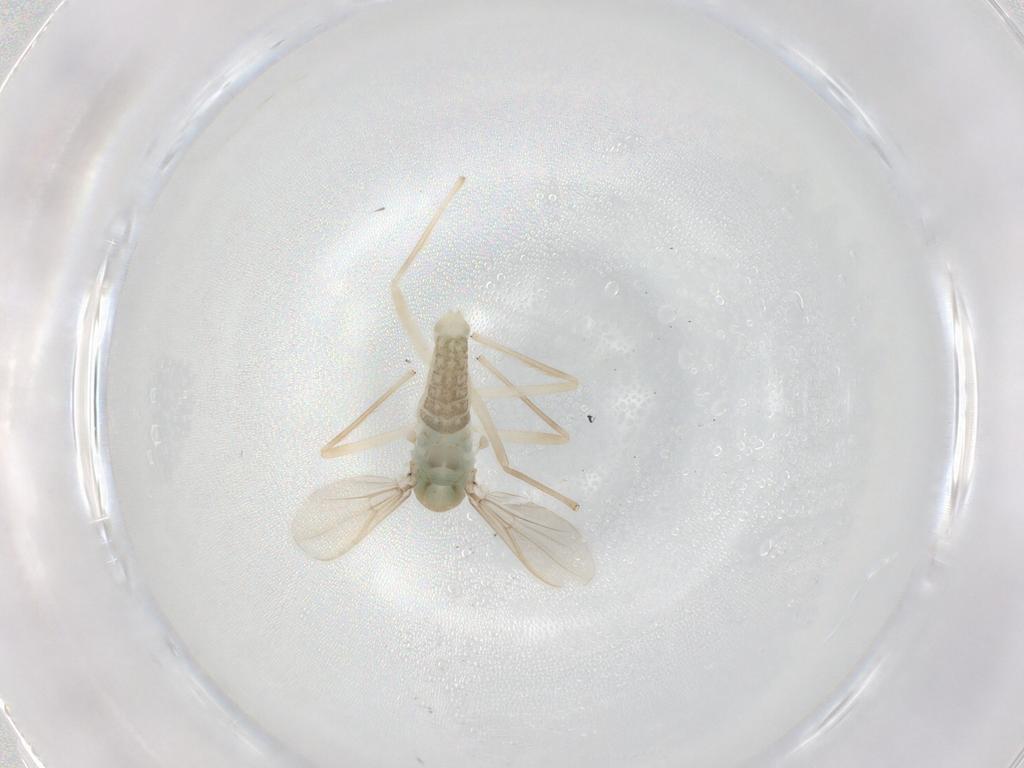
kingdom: Animalia
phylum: Arthropoda
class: Insecta
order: Diptera
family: Chironomidae
